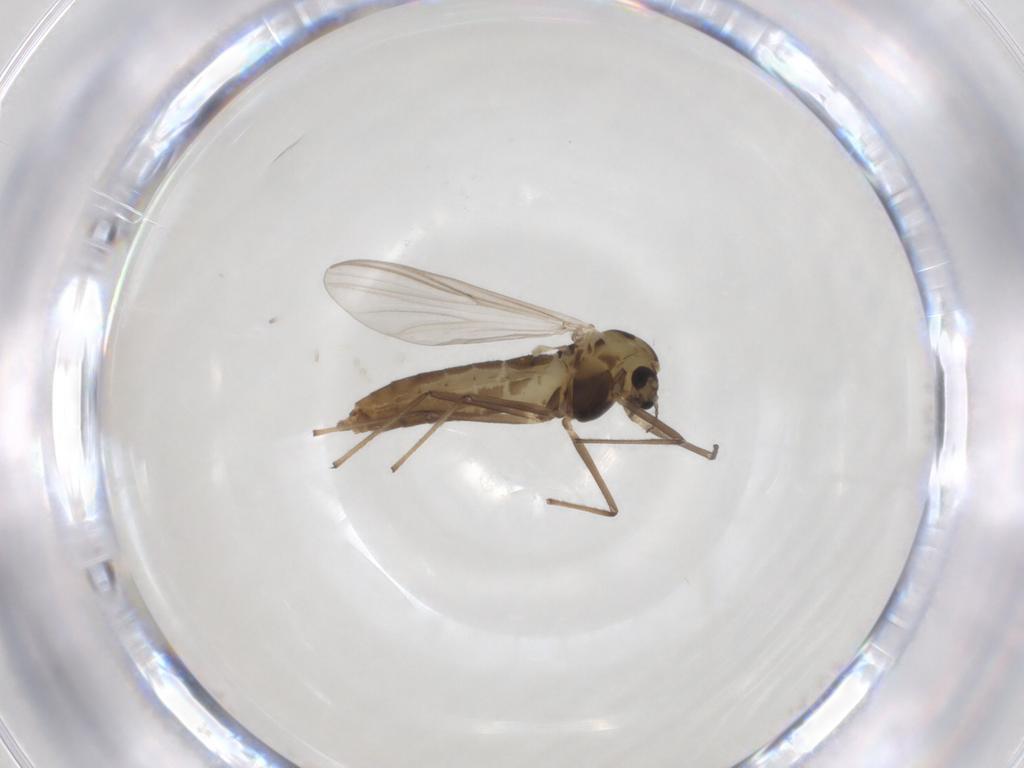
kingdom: Animalia
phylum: Arthropoda
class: Insecta
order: Diptera
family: Chironomidae
